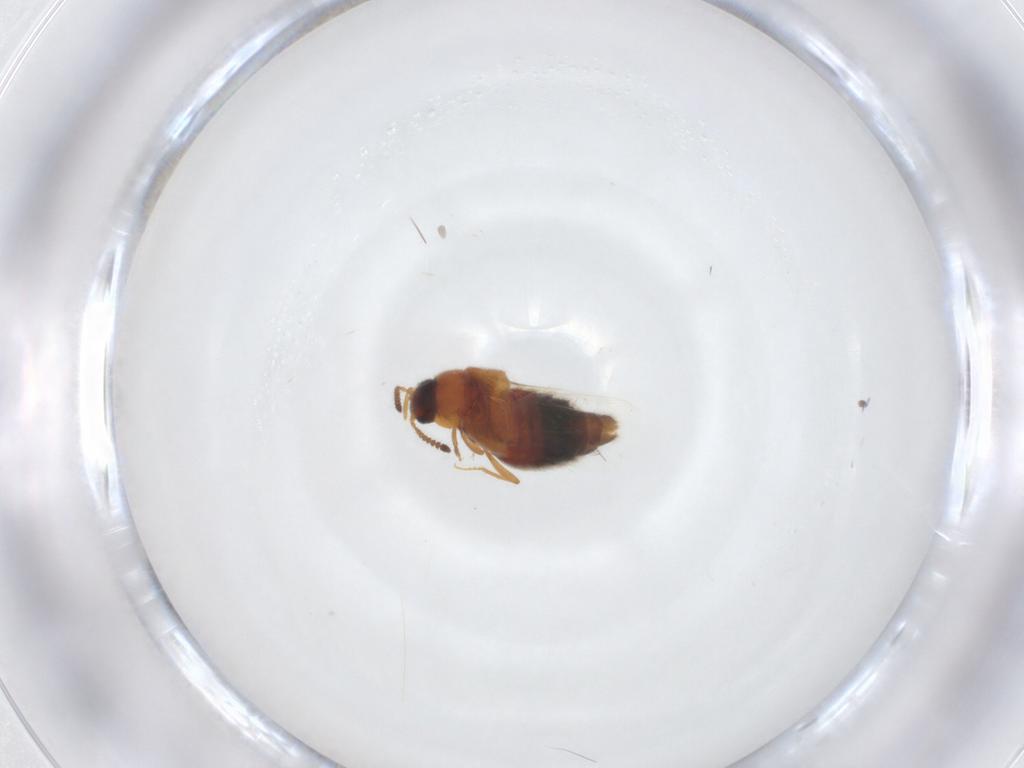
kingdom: Animalia
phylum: Arthropoda
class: Insecta
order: Coleoptera
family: Staphylinidae
